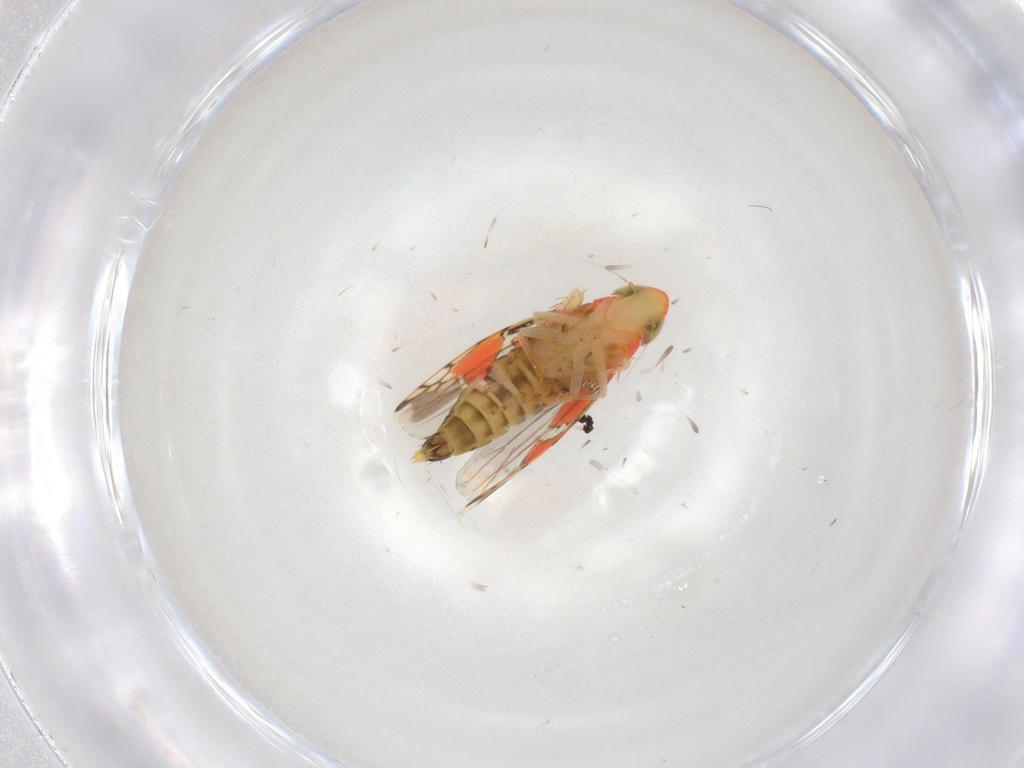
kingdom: Animalia
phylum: Arthropoda
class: Insecta
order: Hemiptera
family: Cicadellidae
